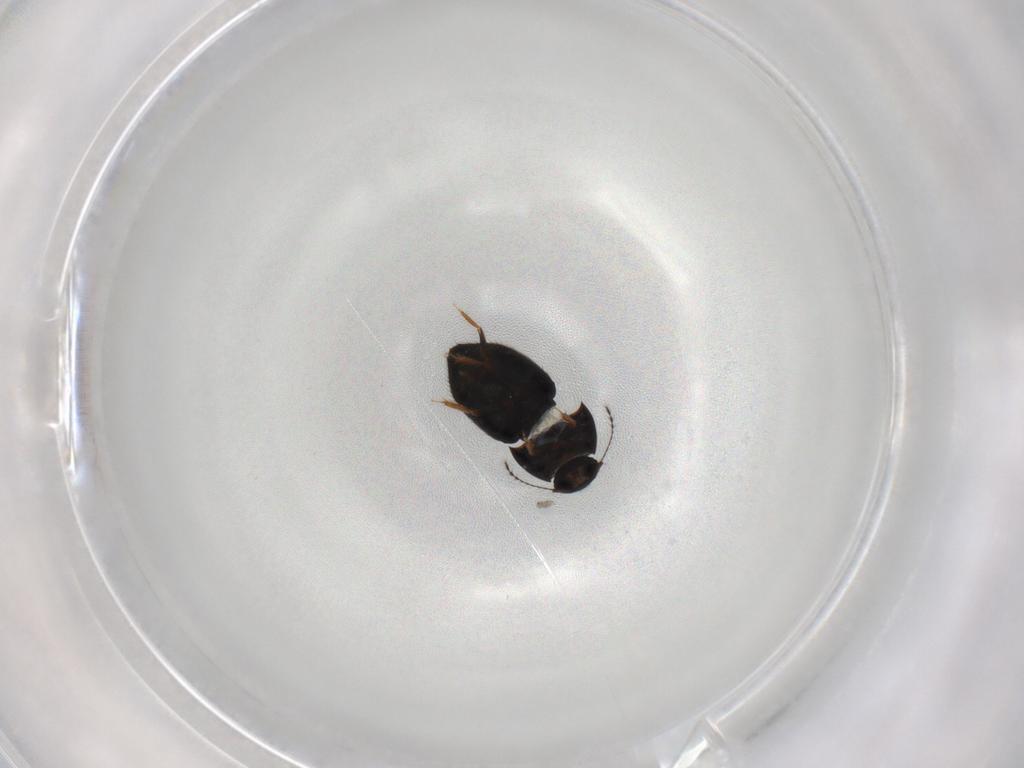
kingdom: Animalia
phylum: Arthropoda
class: Insecta
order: Coleoptera
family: Ptiliidae
